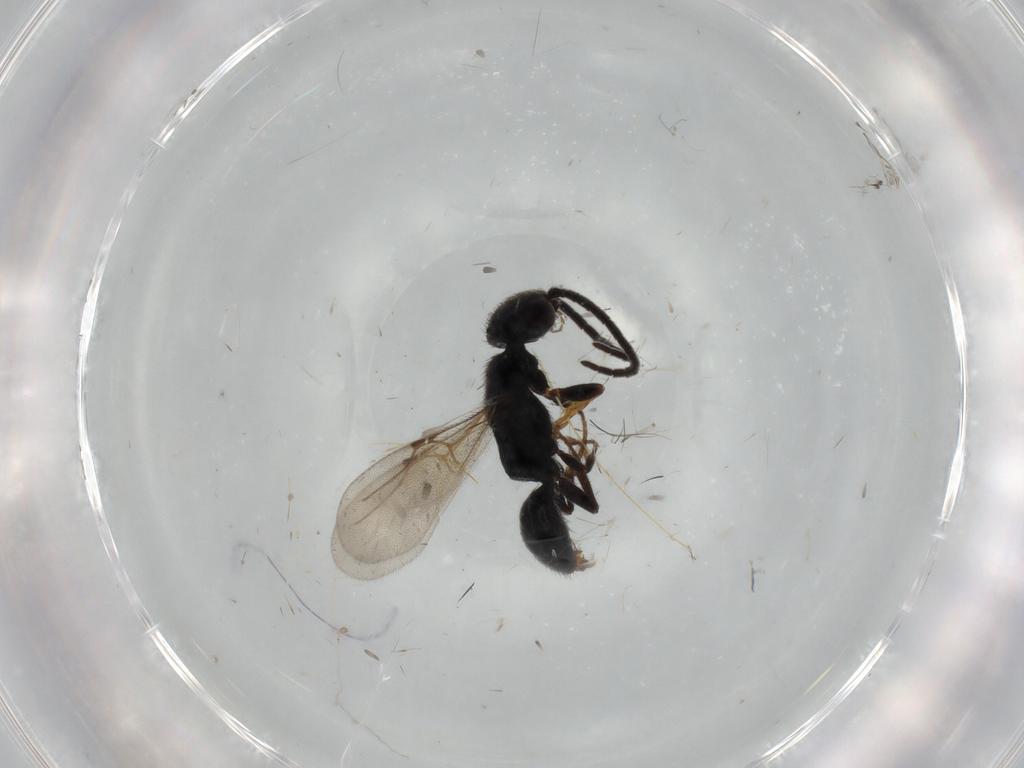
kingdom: Animalia
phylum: Arthropoda
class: Insecta
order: Hymenoptera
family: Bethylidae
